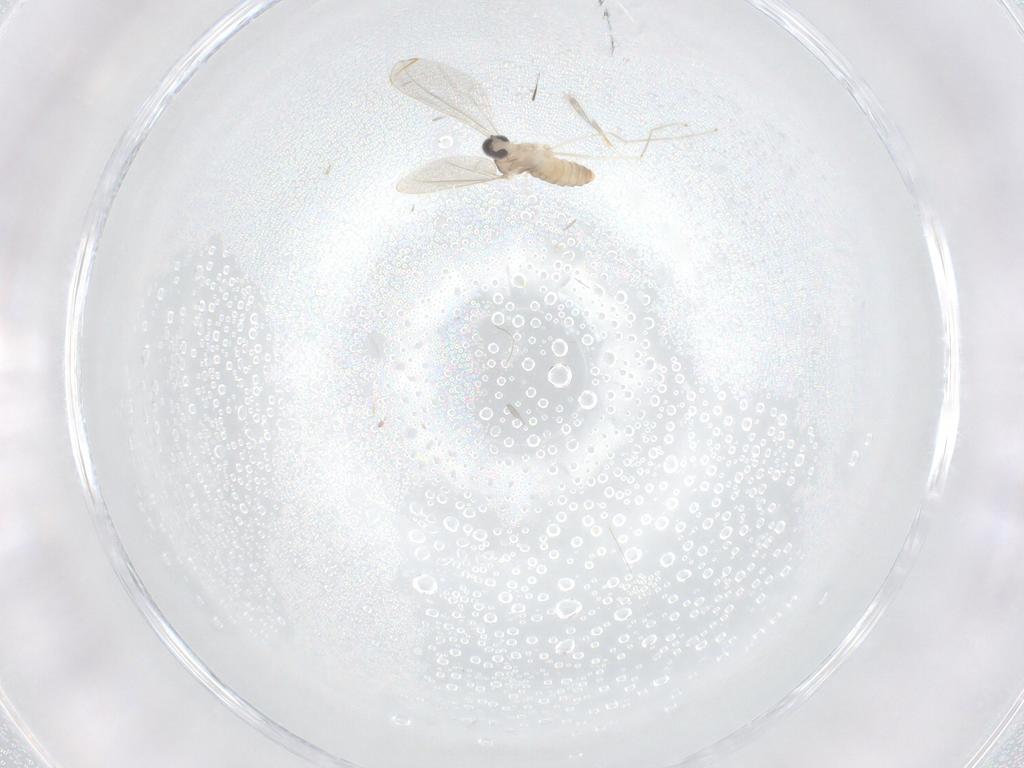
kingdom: Animalia
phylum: Arthropoda
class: Insecta
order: Diptera
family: Cecidomyiidae
